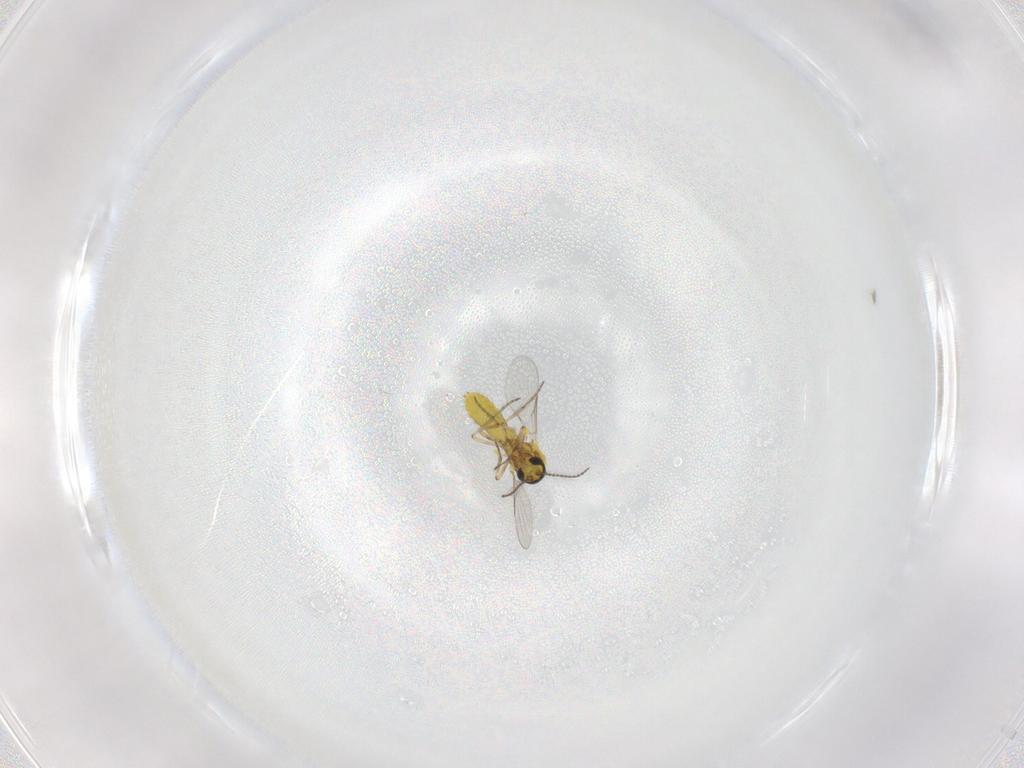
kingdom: Animalia
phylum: Arthropoda
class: Insecta
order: Diptera
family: Ceratopogonidae
